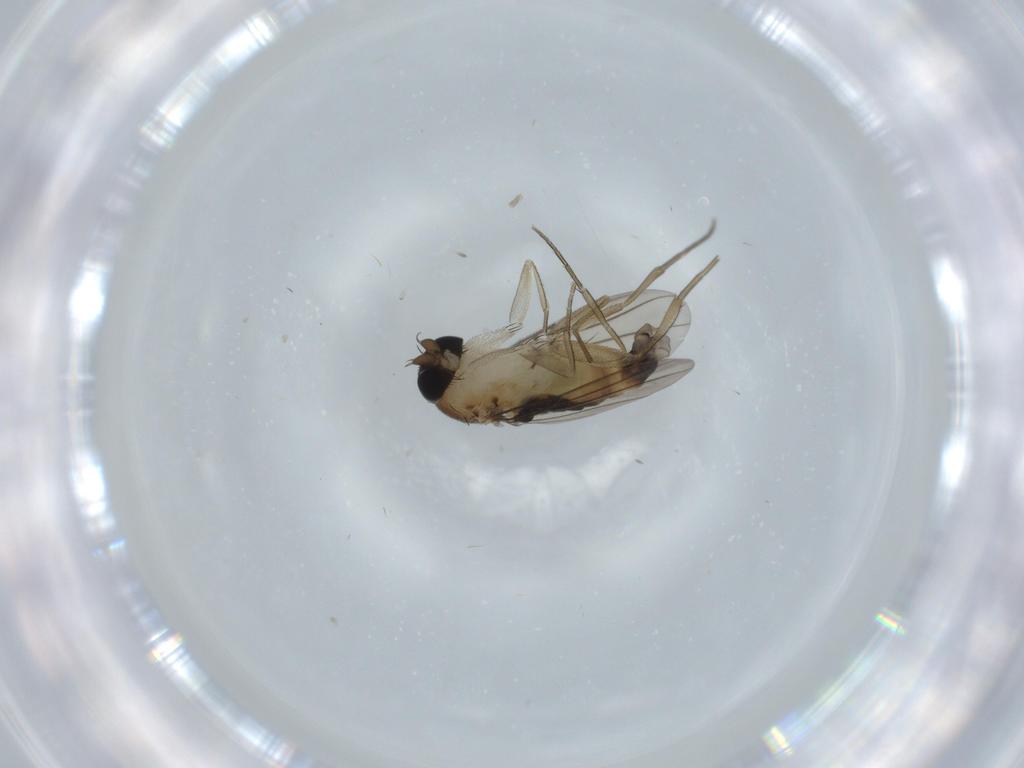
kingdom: Animalia
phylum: Arthropoda
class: Insecta
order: Diptera
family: Phoridae
